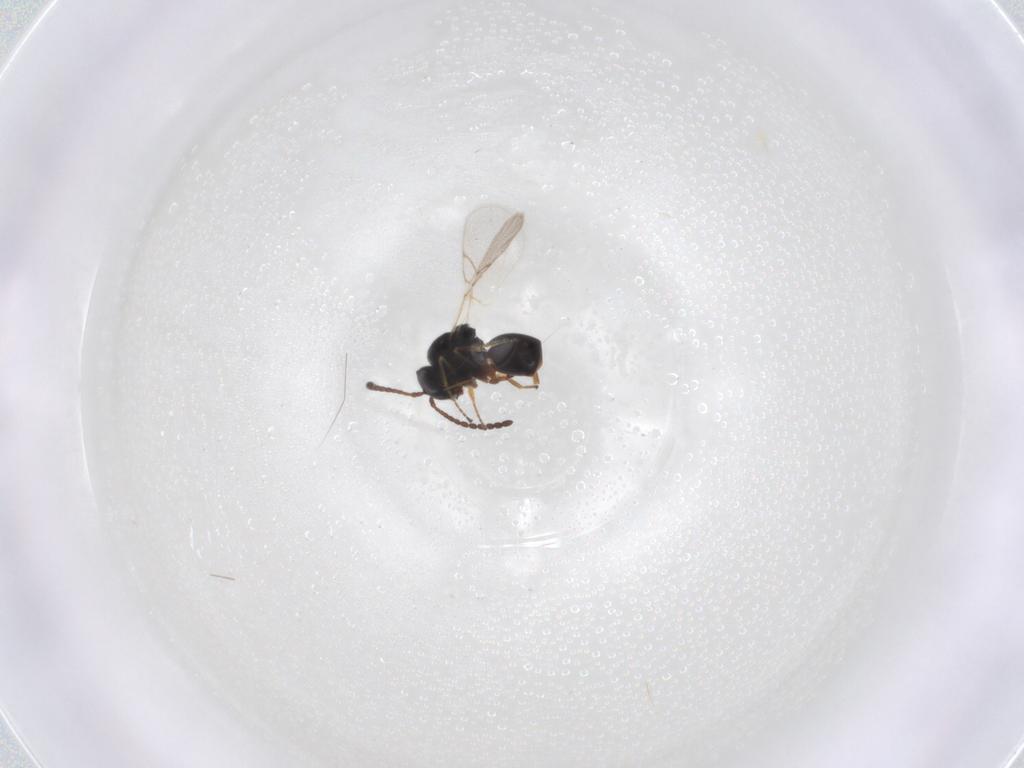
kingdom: Animalia
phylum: Arthropoda
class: Insecta
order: Hymenoptera
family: Figitidae
